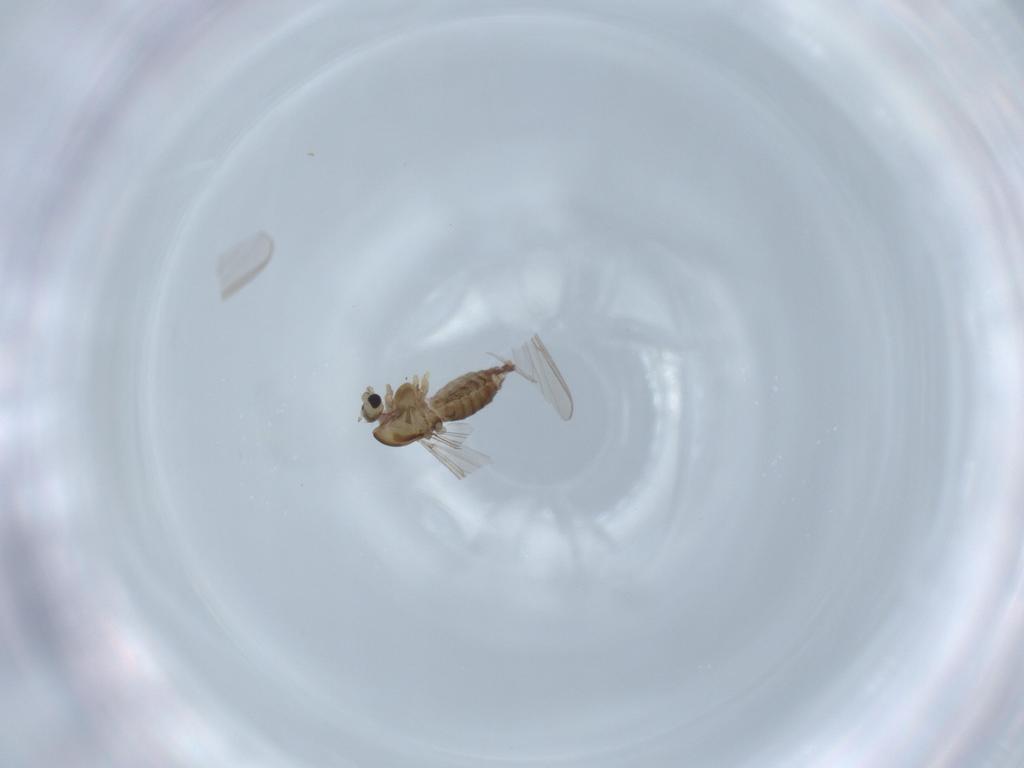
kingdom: Animalia
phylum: Arthropoda
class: Insecta
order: Diptera
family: Chironomidae
